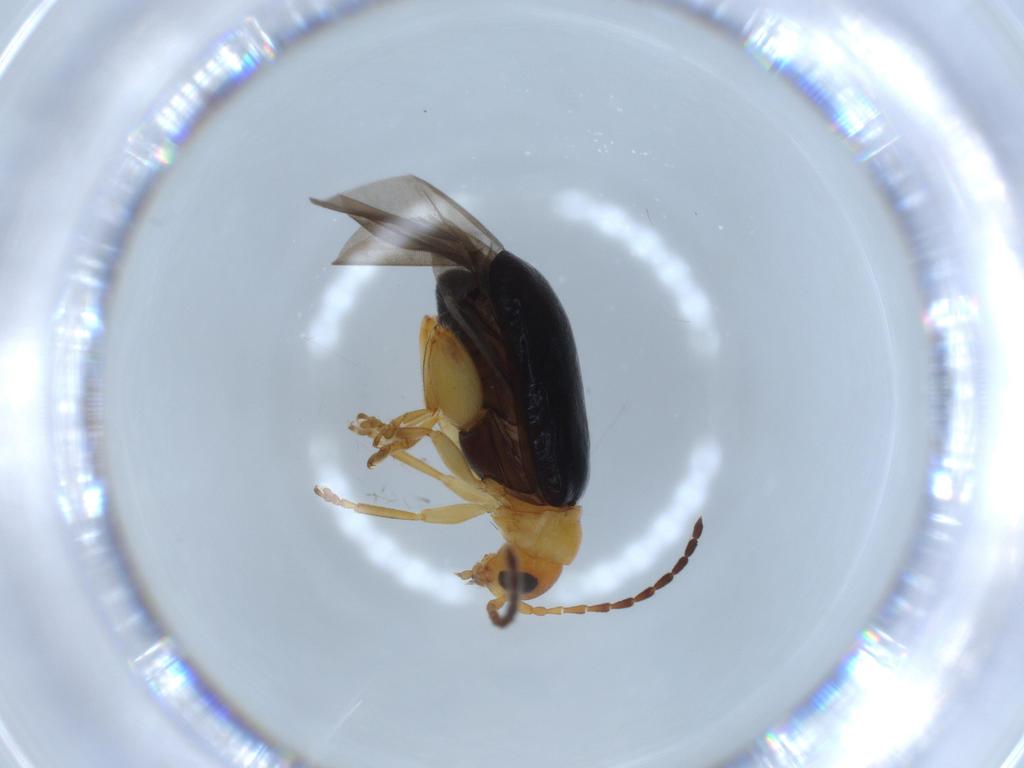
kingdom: Animalia
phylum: Arthropoda
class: Insecta
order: Coleoptera
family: Chrysomelidae
